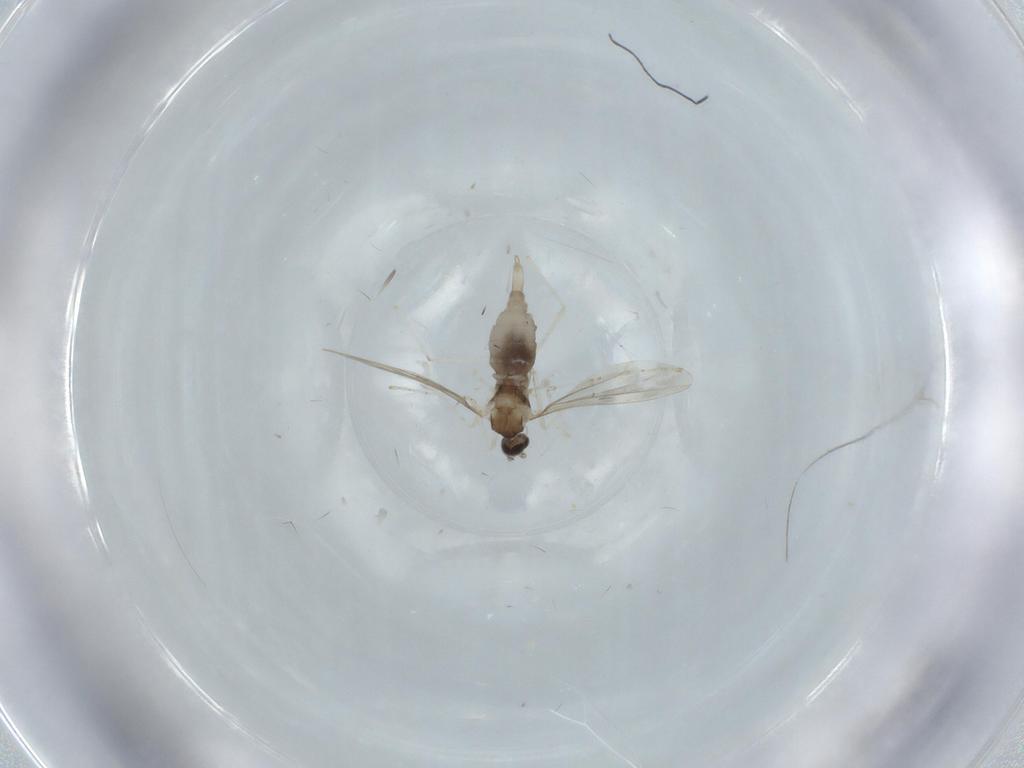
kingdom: Animalia
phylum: Arthropoda
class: Insecta
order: Diptera
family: Cecidomyiidae
